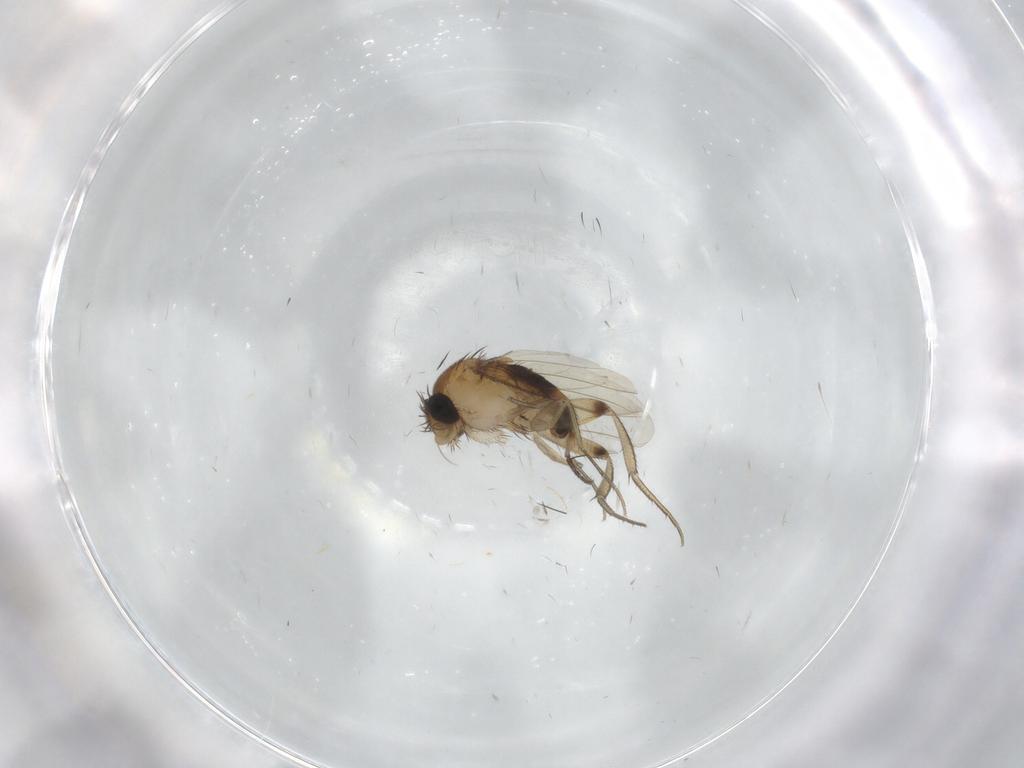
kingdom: Animalia
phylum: Arthropoda
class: Insecta
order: Diptera
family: Phoridae
